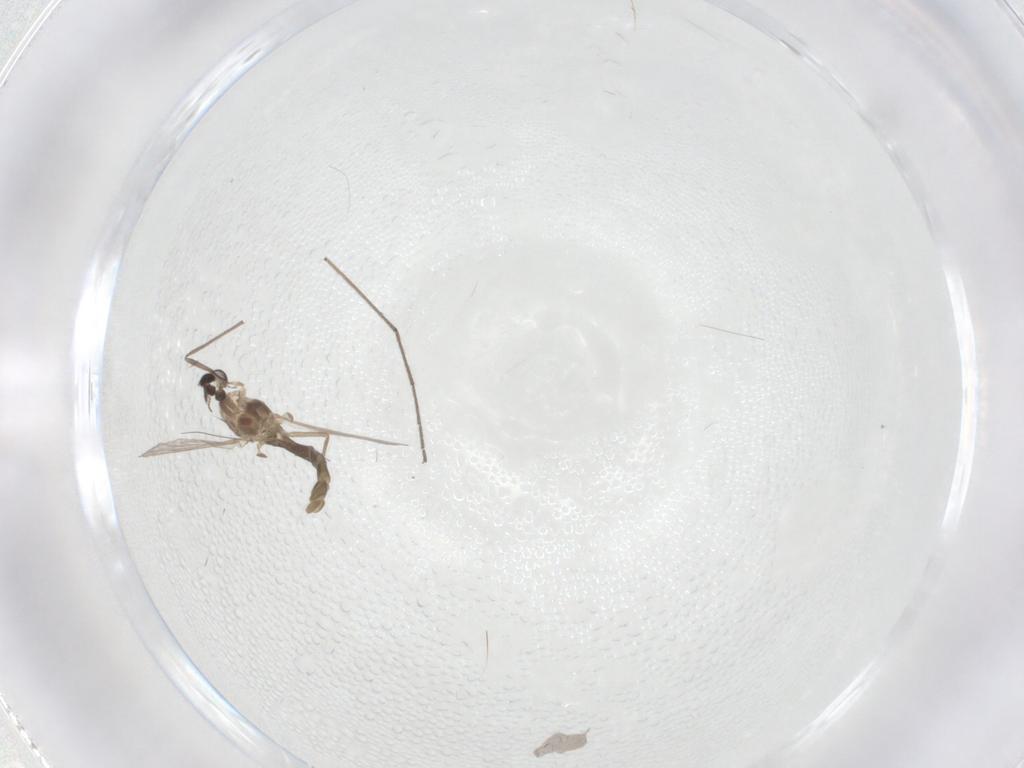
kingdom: Animalia
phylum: Arthropoda
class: Insecta
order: Diptera
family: Chironomidae
